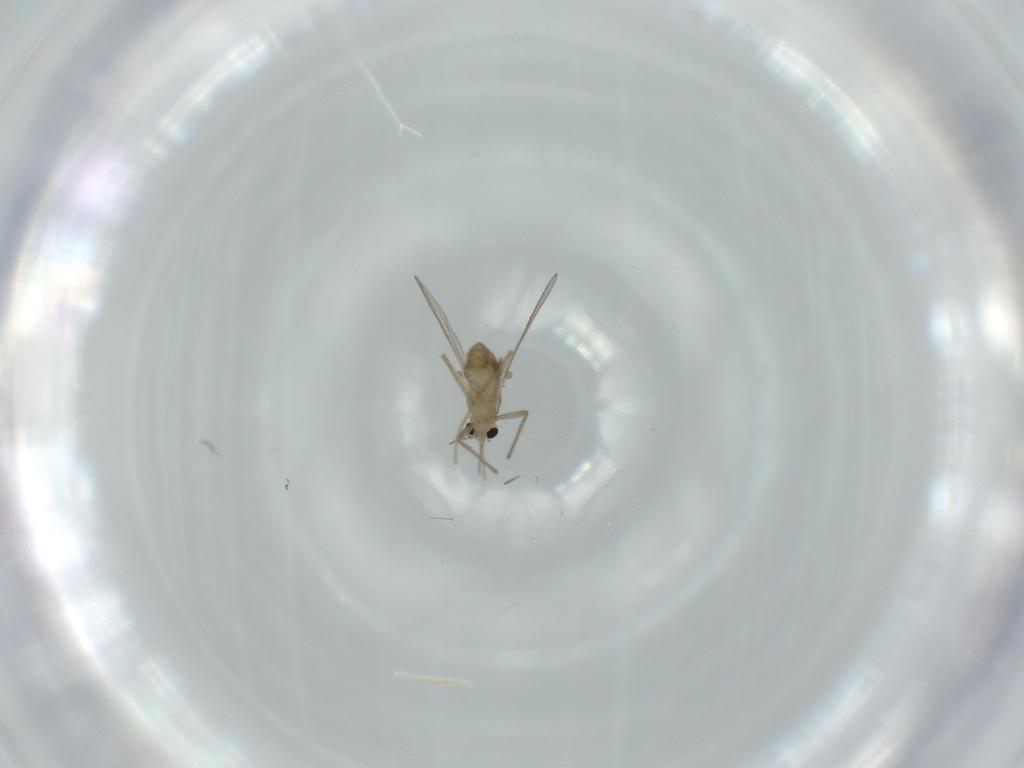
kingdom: Animalia
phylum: Arthropoda
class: Insecta
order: Diptera
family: Chironomidae
